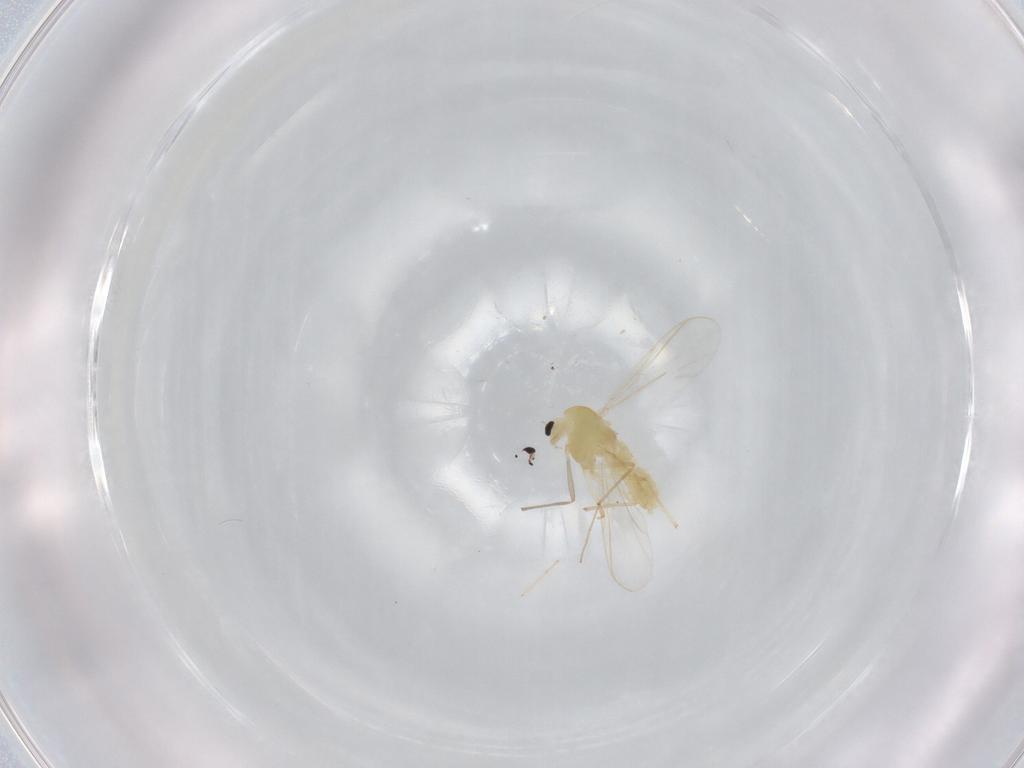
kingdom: Animalia
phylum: Arthropoda
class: Insecta
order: Diptera
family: Chironomidae
